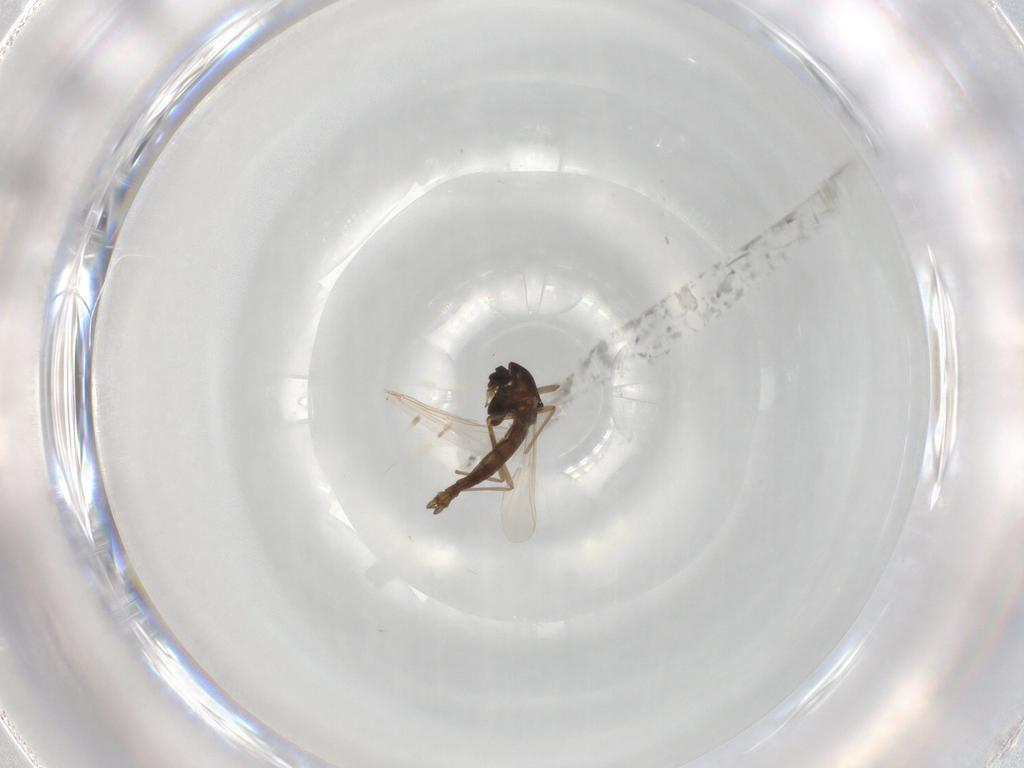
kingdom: Animalia
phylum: Arthropoda
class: Insecta
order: Diptera
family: Chironomidae
